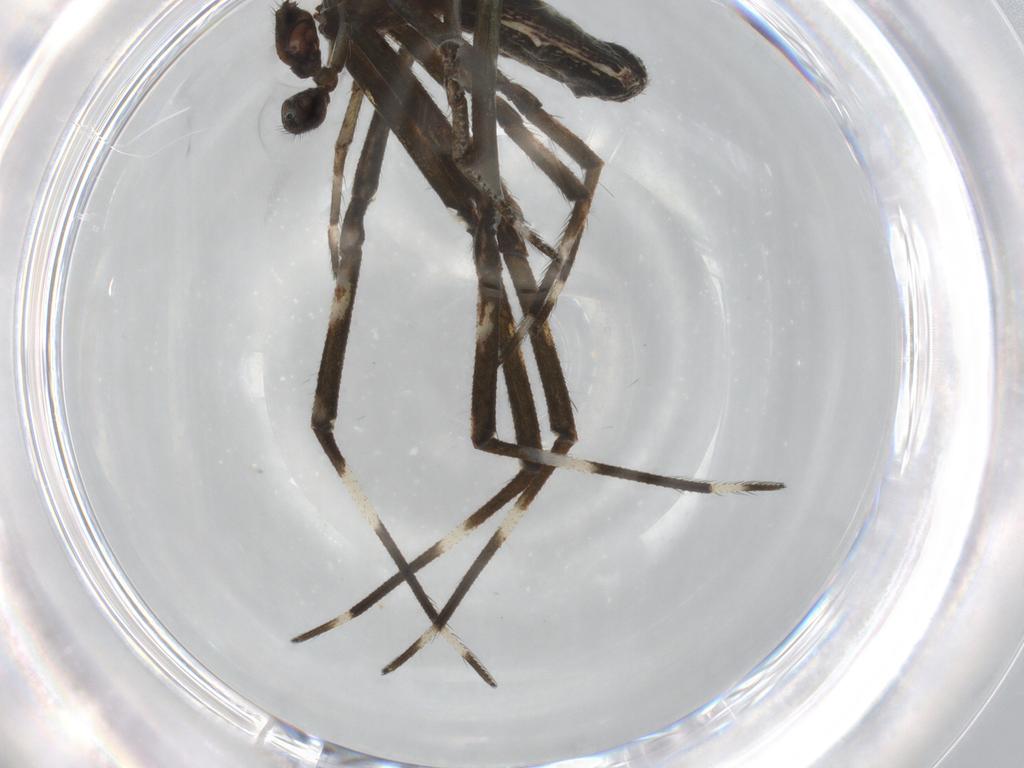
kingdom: Animalia
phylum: Arthropoda
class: Arachnida
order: Araneae
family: Theridiidae
